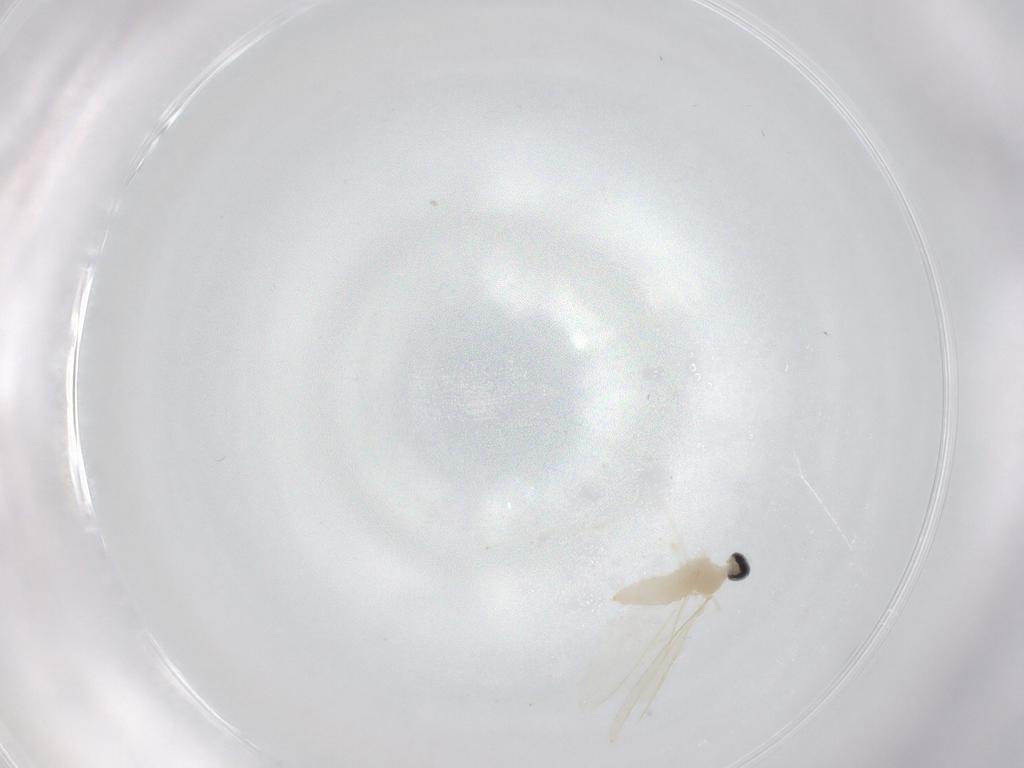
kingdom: Animalia
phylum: Arthropoda
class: Insecta
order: Diptera
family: Cecidomyiidae
